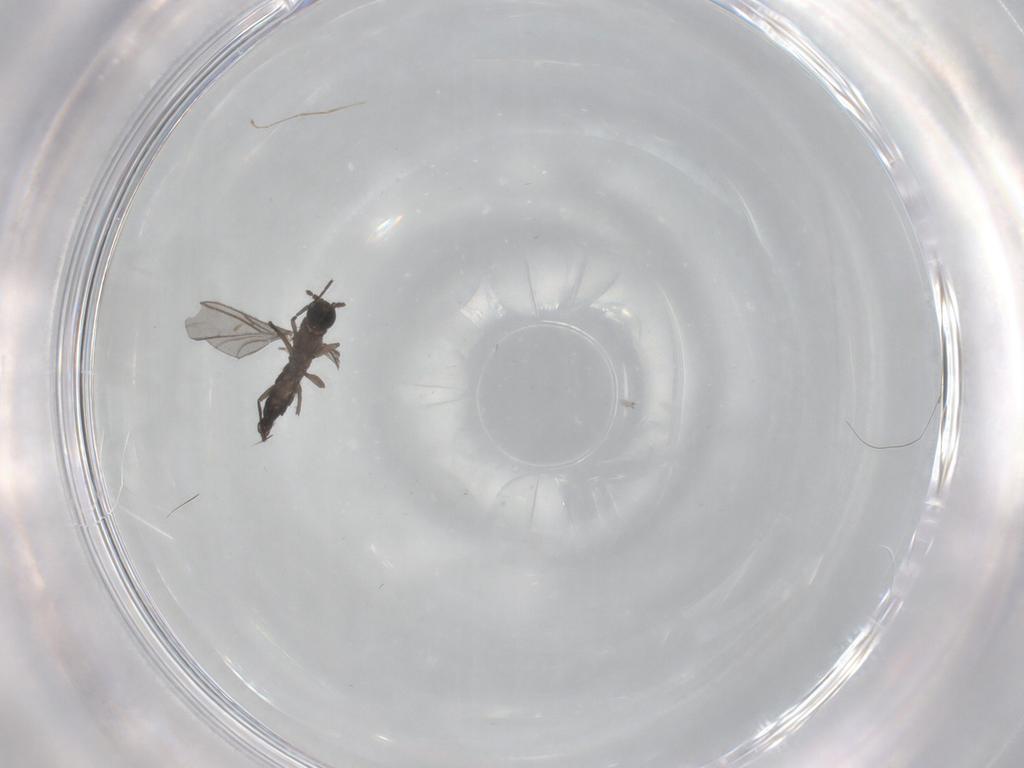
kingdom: Animalia
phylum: Arthropoda
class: Insecta
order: Diptera
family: Cecidomyiidae
